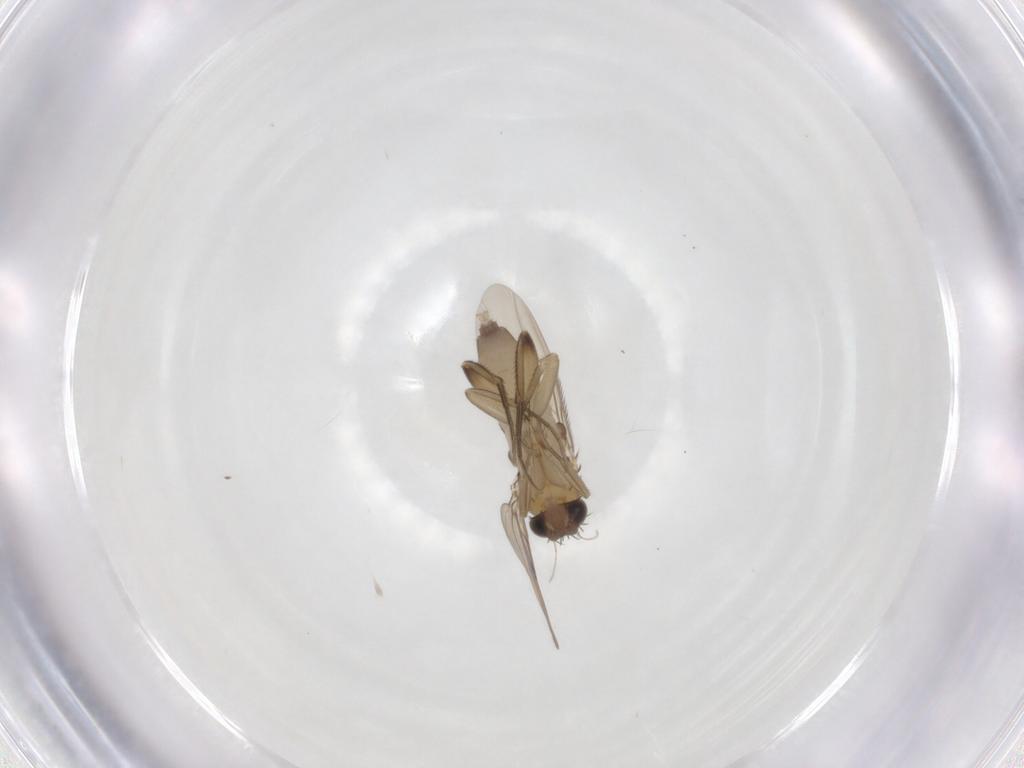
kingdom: Animalia
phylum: Arthropoda
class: Insecta
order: Diptera
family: Phoridae
